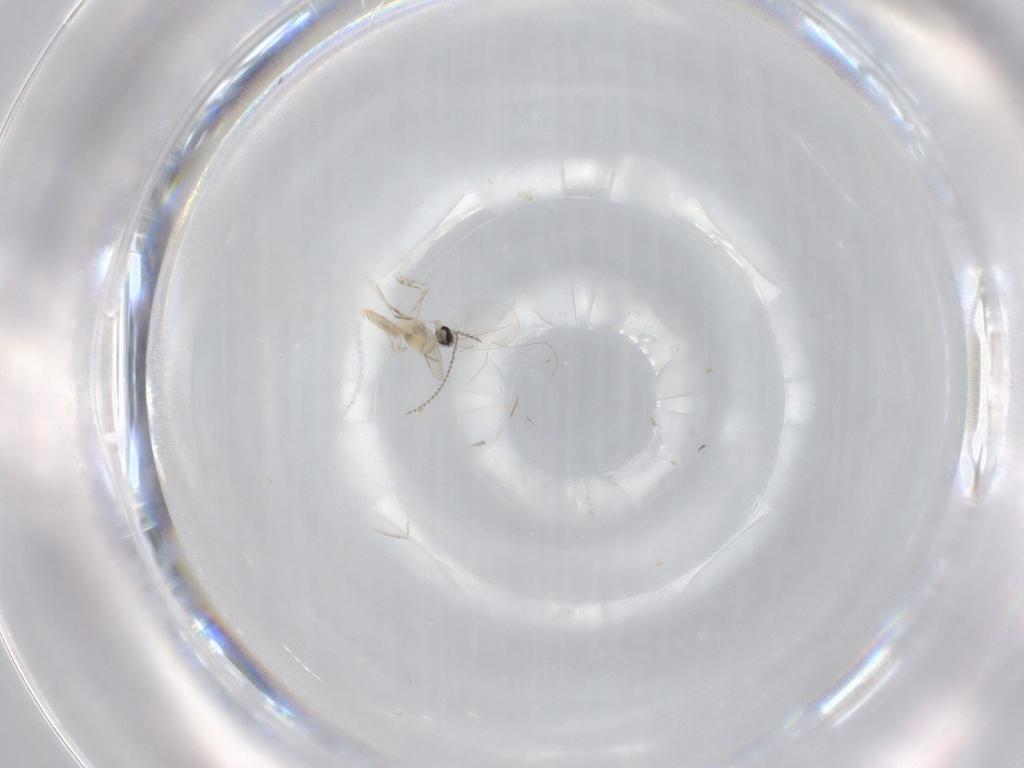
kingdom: Animalia
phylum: Arthropoda
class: Insecta
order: Diptera
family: Cecidomyiidae
